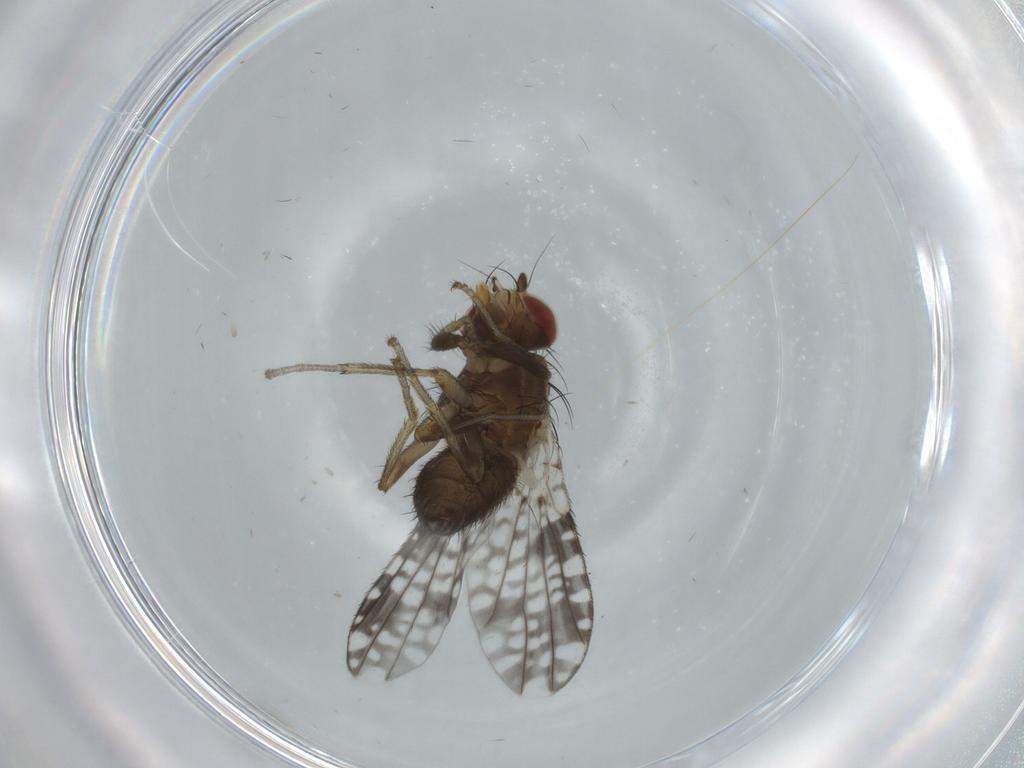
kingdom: Animalia
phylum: Arthropoda
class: Insecta
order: Diptera
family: Tephritidae
